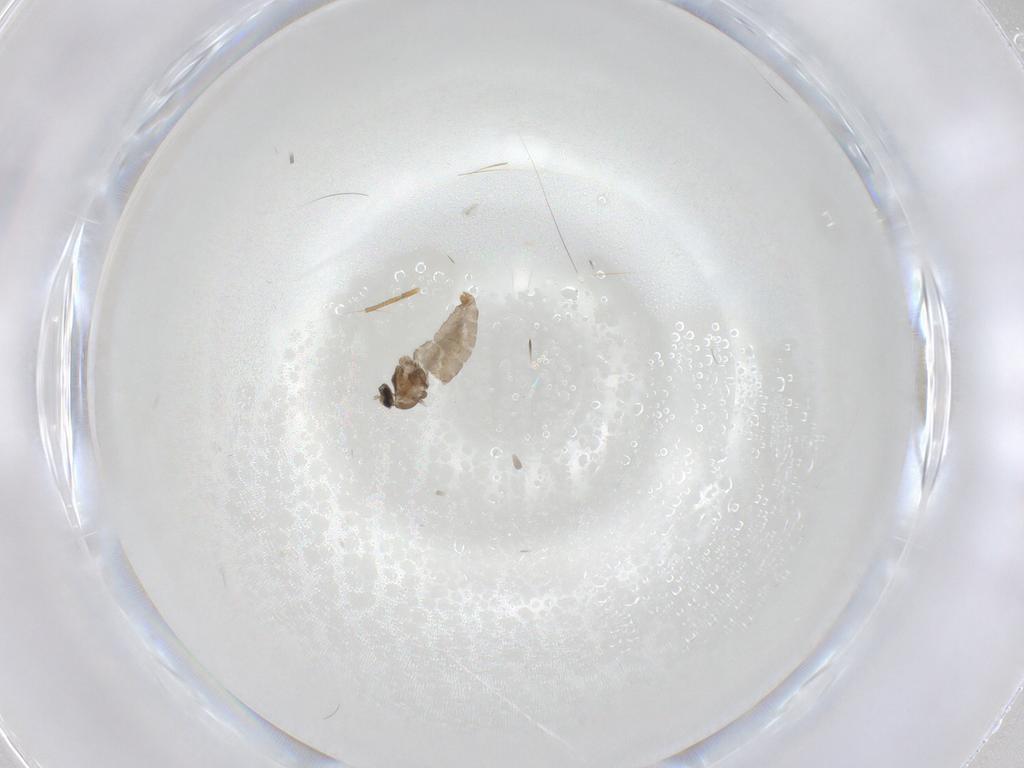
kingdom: Animalia
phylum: Arthropoda
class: Insecta
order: Diptera
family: Ceratopogonidae
